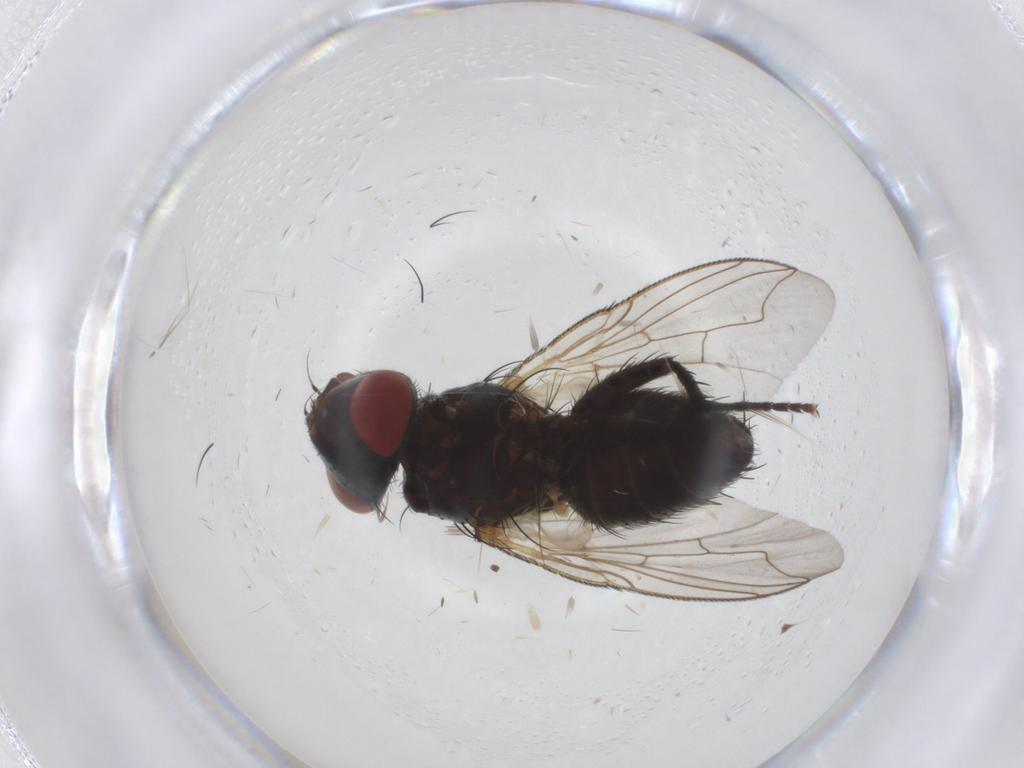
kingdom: Animalia
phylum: Arthropoda
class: Insecta
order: Diptera
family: Sarcophagidae
